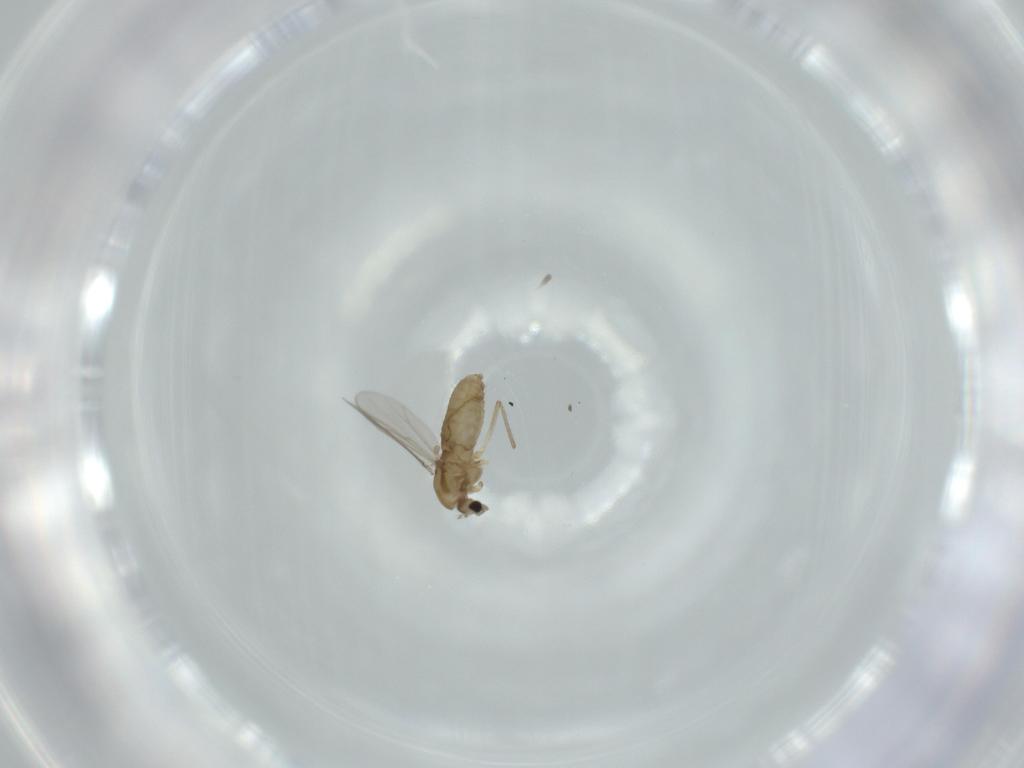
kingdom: Animalia
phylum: Arthropoda
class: Insecta
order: Diptera
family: Chironomidae
